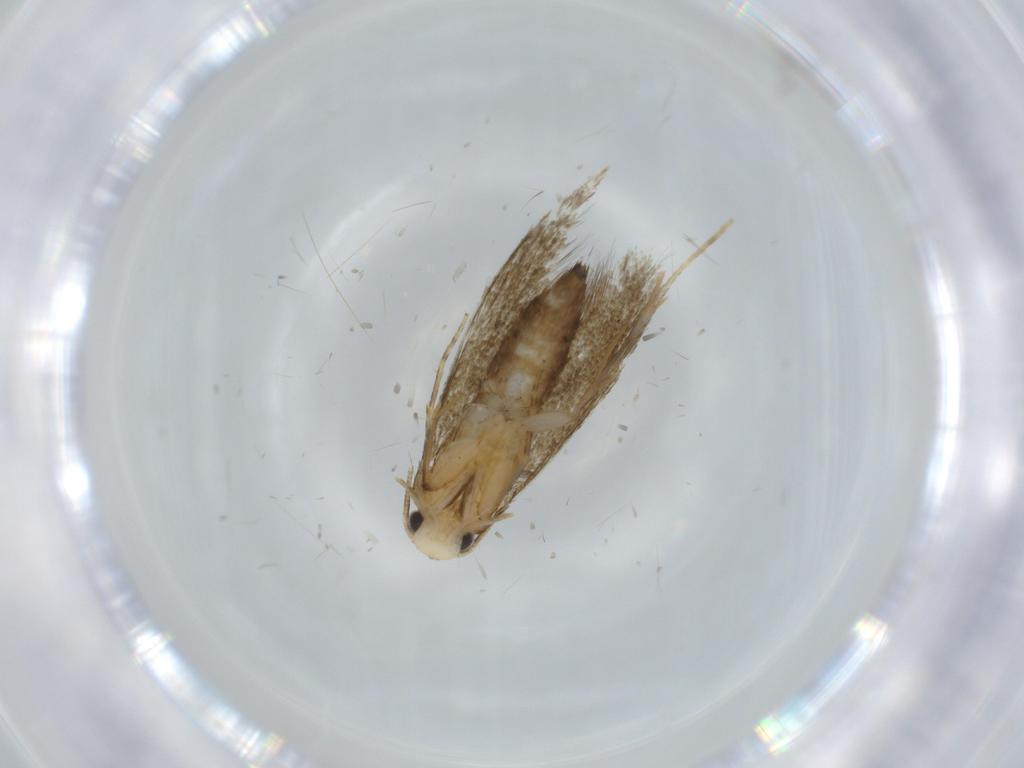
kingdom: Animalia
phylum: Arthropoda
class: Insecta
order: Lepidoptera
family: Tineidae
